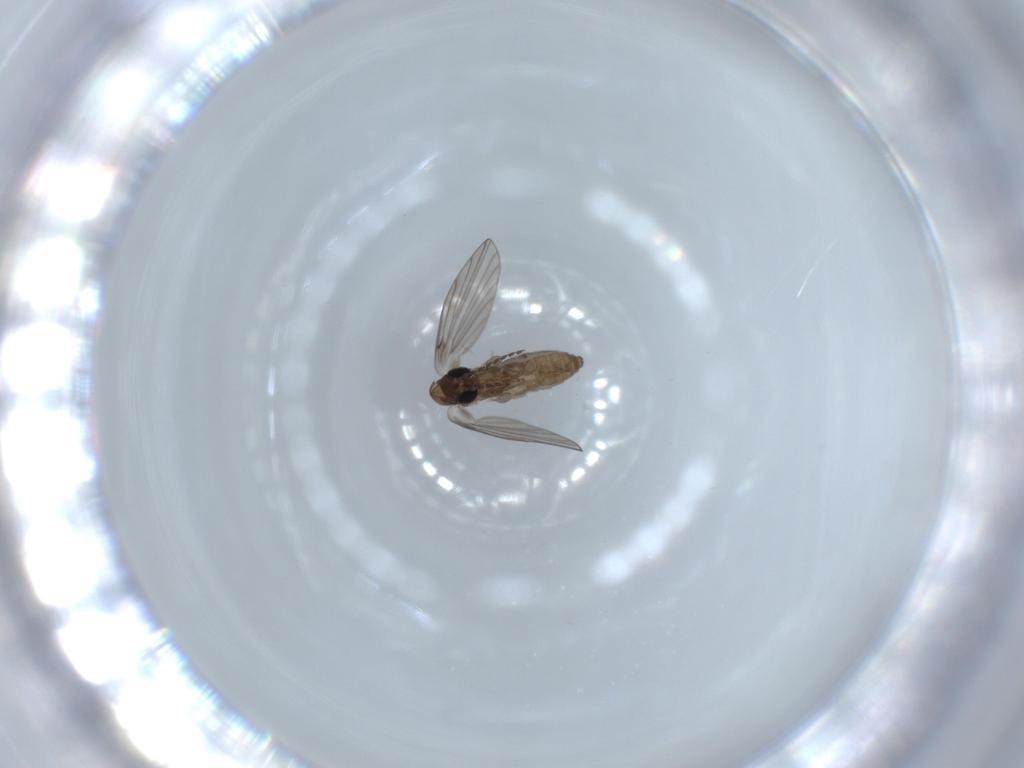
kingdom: Animalia
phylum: Arthropoda
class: Insecta
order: Diptera
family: Psychodidae
